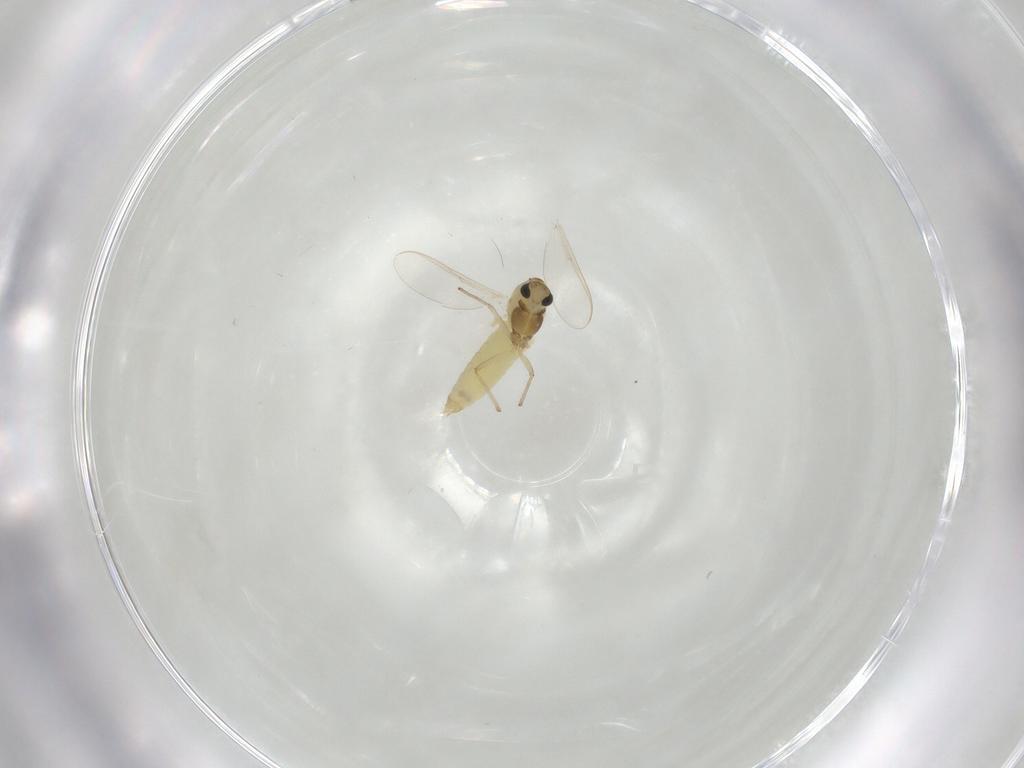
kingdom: Animalia
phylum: Arthropoda
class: Insecta
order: Diptera
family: Chironomidae
